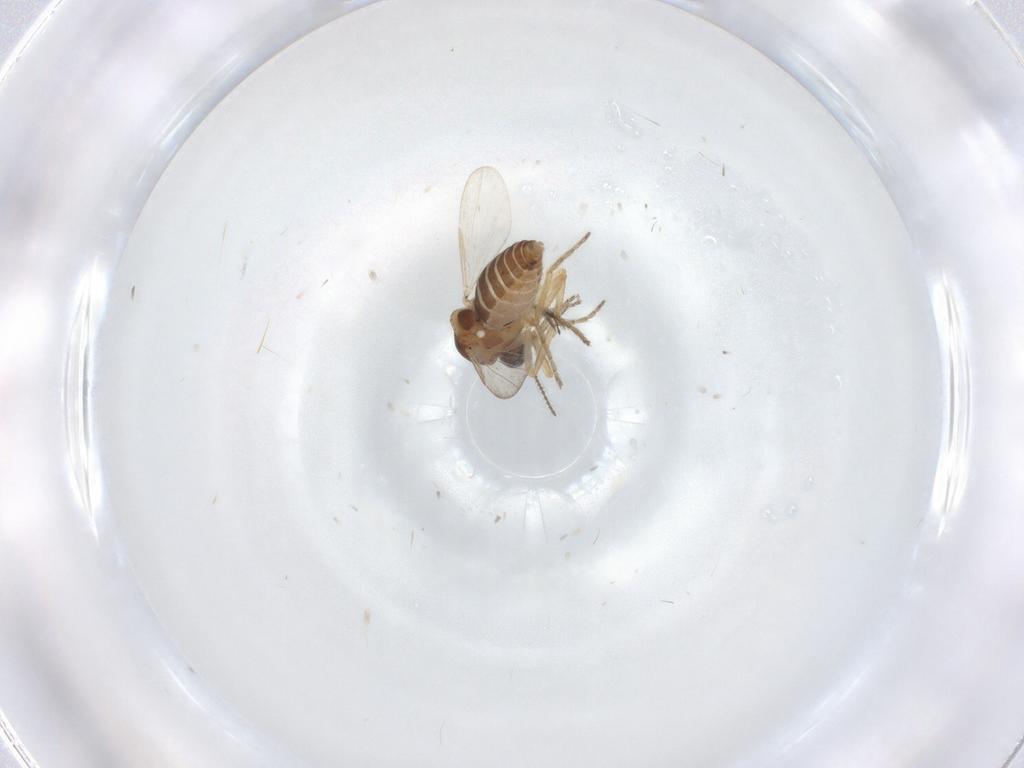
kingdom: Animalia
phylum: Arthropoda
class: Insecta
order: Diptera
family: Ceratopogonidae
